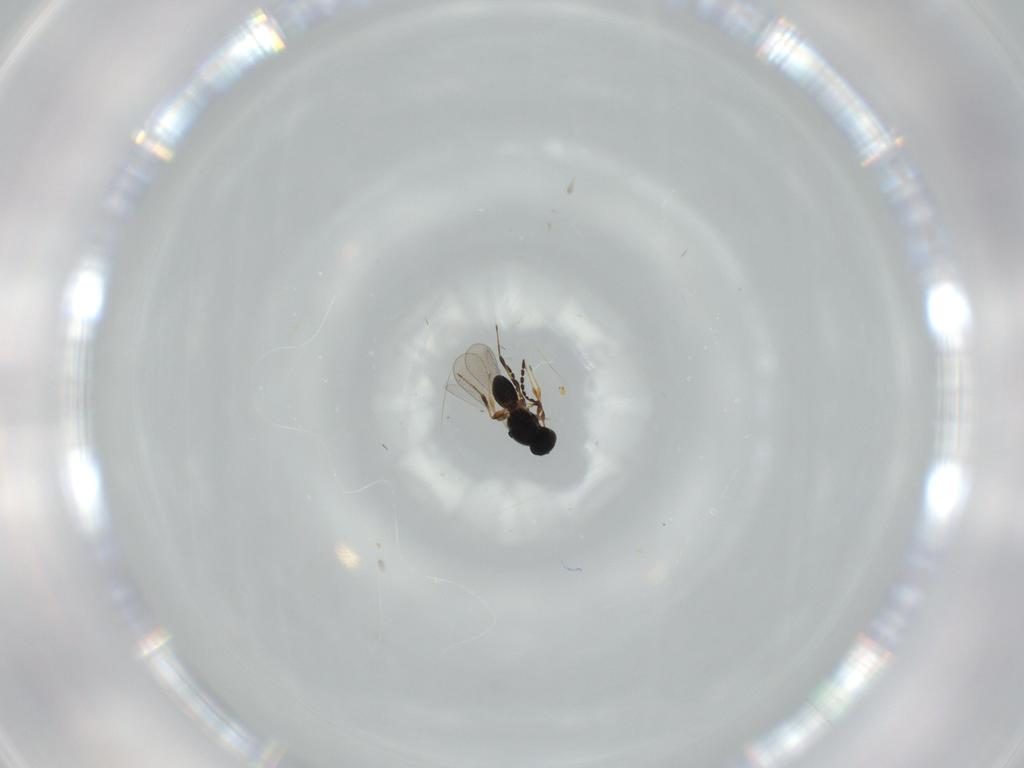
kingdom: Animalia
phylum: Arthropoda
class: Insecta
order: Hymenoptera
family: Platygastridae
